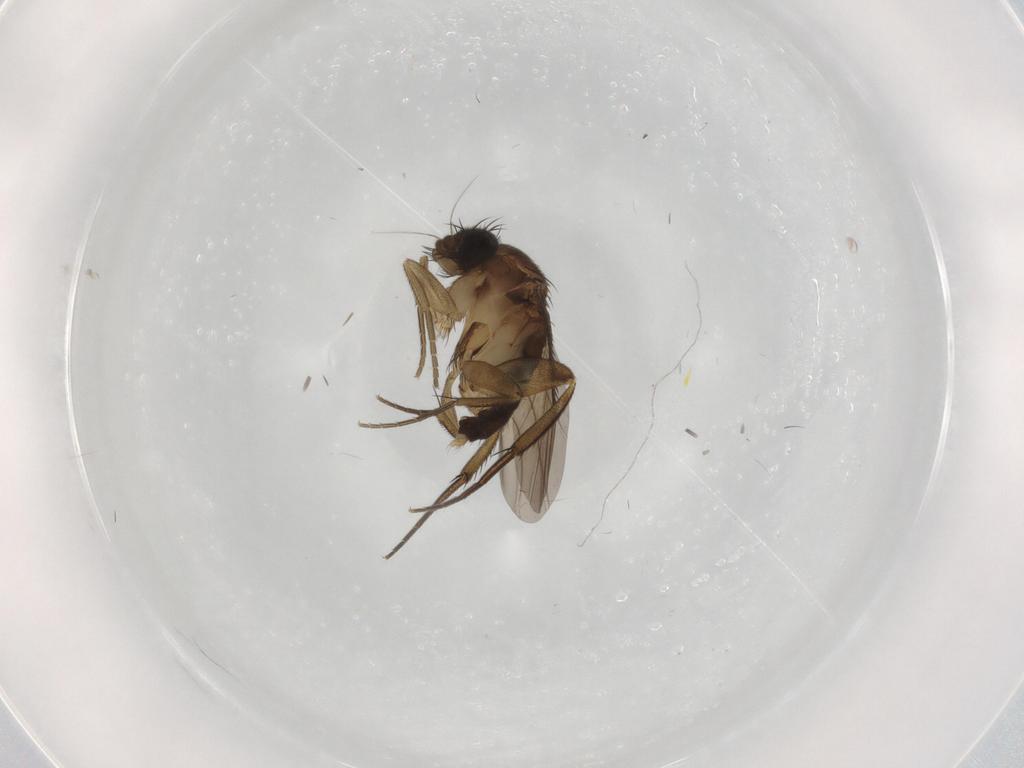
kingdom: Animalia
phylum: Arthropoda
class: Insecta
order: Diptera
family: Phoridae
